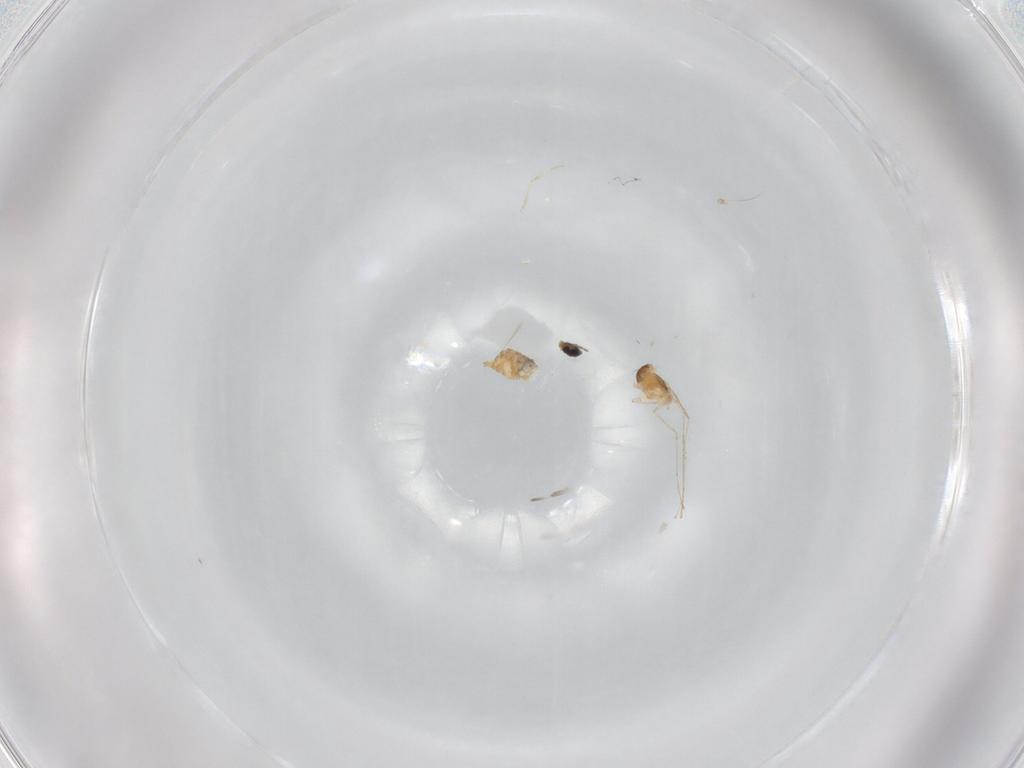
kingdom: Animalia
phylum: Arthropoda
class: Insecta
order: Diptera
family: Cecidomyiidae
